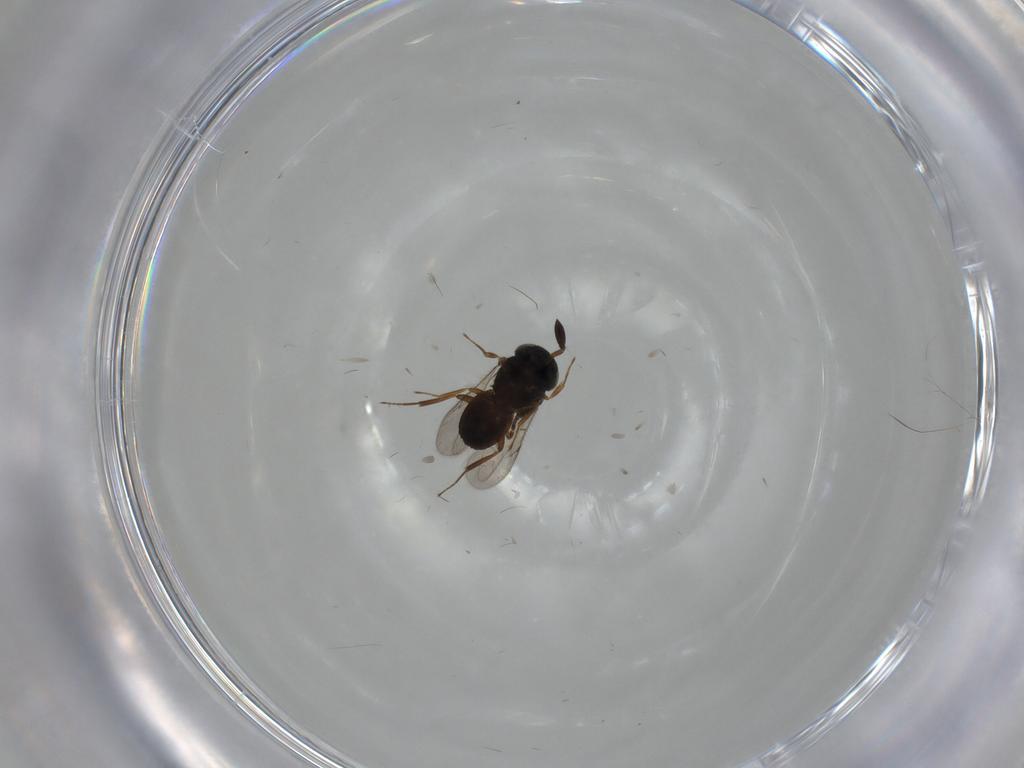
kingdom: Animalia
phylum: Arthropoda
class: Insecta
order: Hymenoptera
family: Scelionidae
